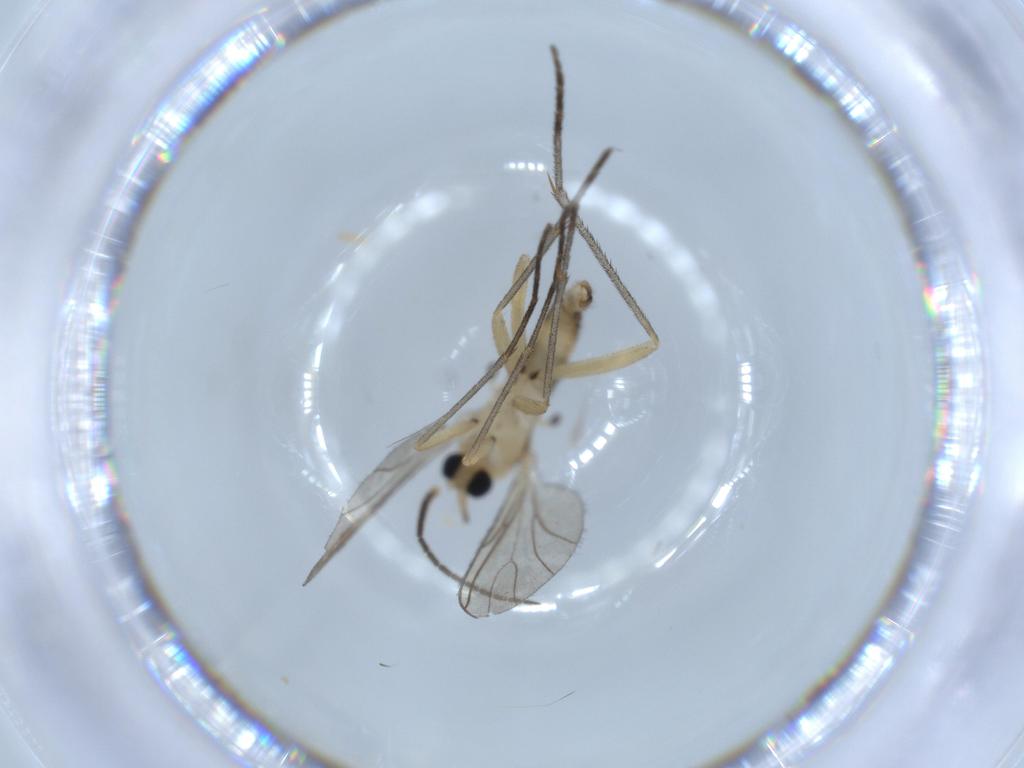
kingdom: Animalia
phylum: Arthropoda
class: Insecta
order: Diptera
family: Sciaridae
